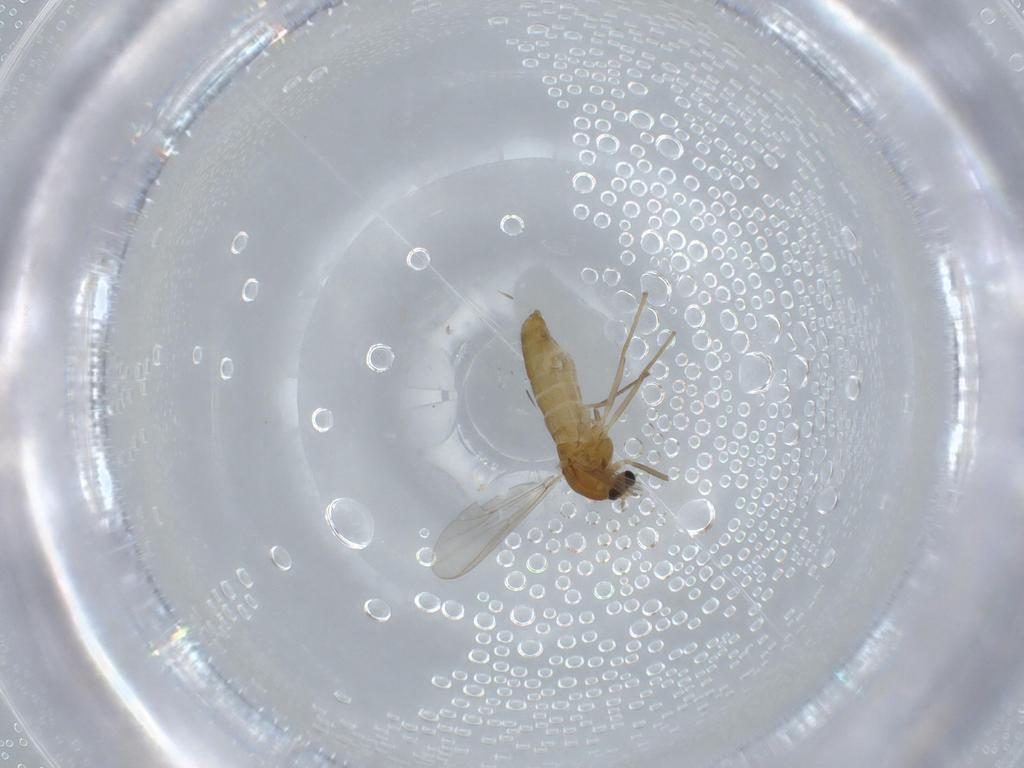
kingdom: Animalia
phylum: Arthropoda
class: Insecta
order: Diptera
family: Chironomidae
